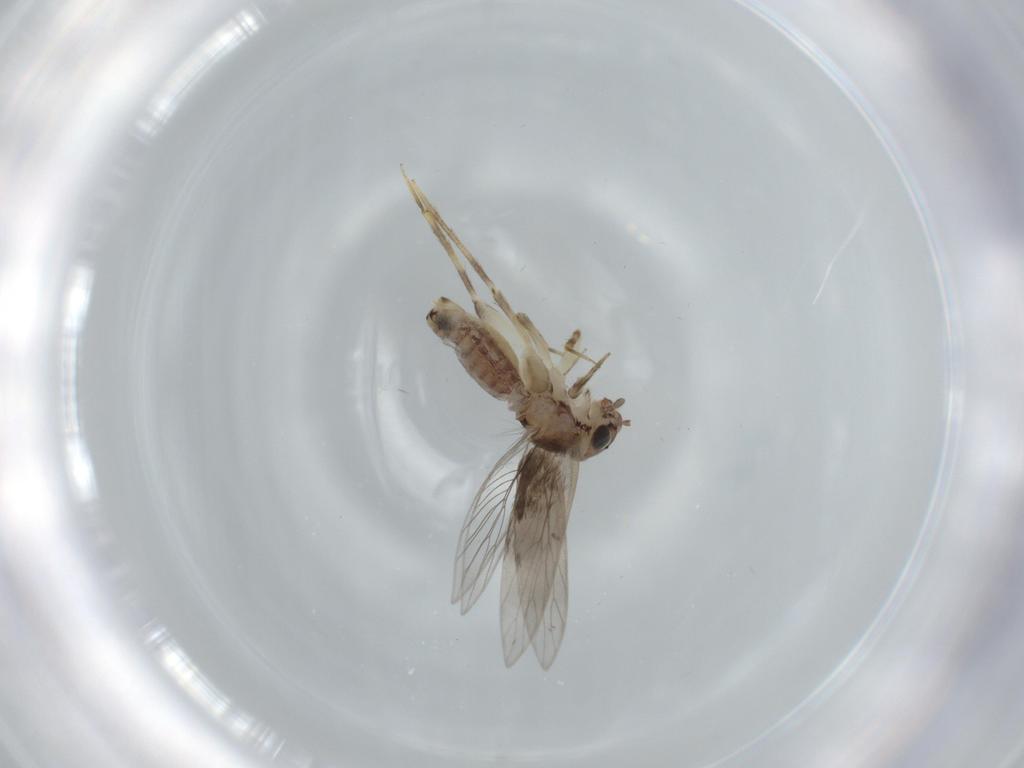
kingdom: Animalia
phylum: Arthropoda
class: Insecta
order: Psocodea
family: Lepidopsocidae
